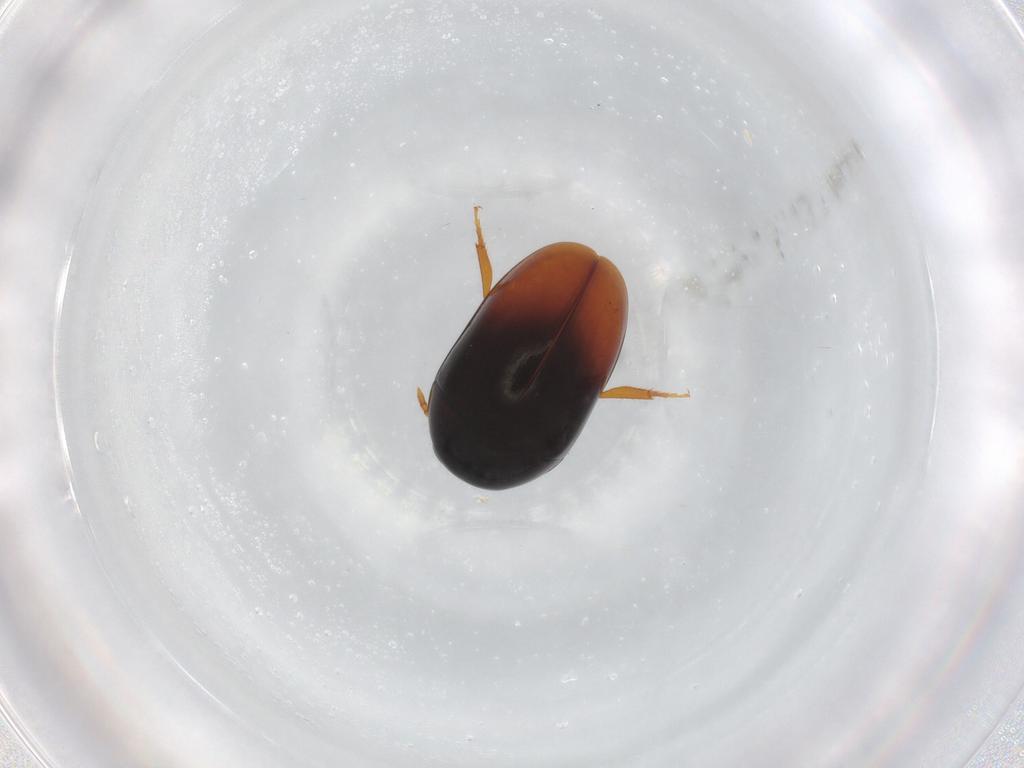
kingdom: Animalia
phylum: Arthropoda
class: Insecta
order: Coleoptera
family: Phalacridae
